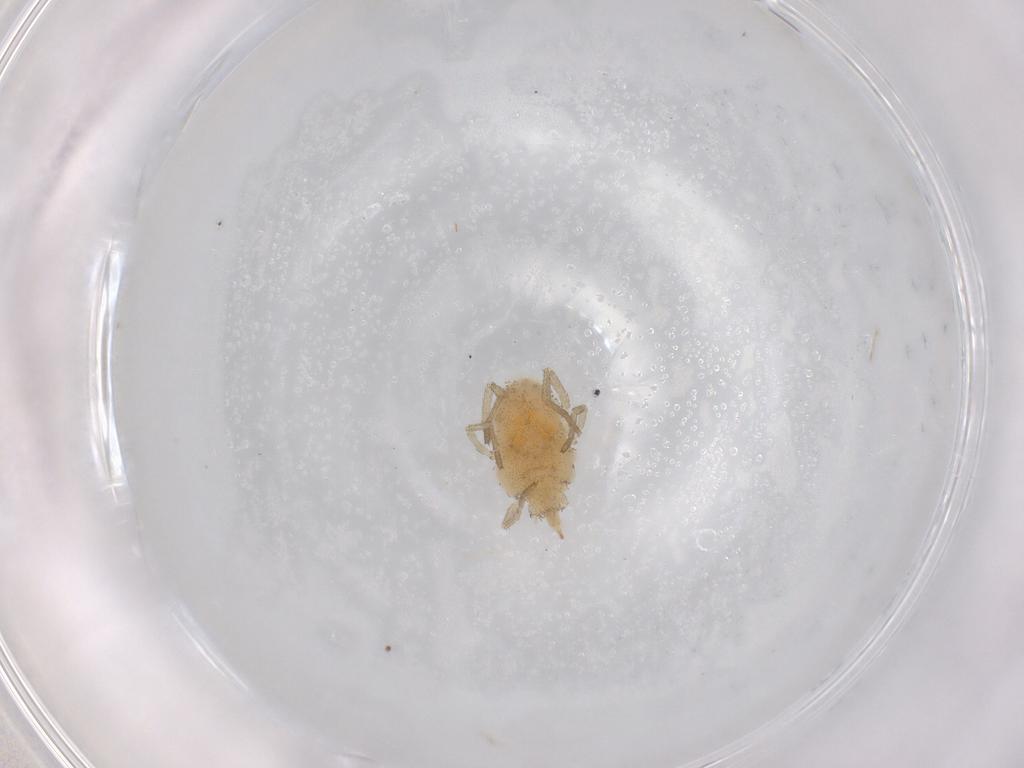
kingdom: Animalia
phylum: Arthropoda
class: Arachnida
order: Trombidiformes
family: Smarididae
